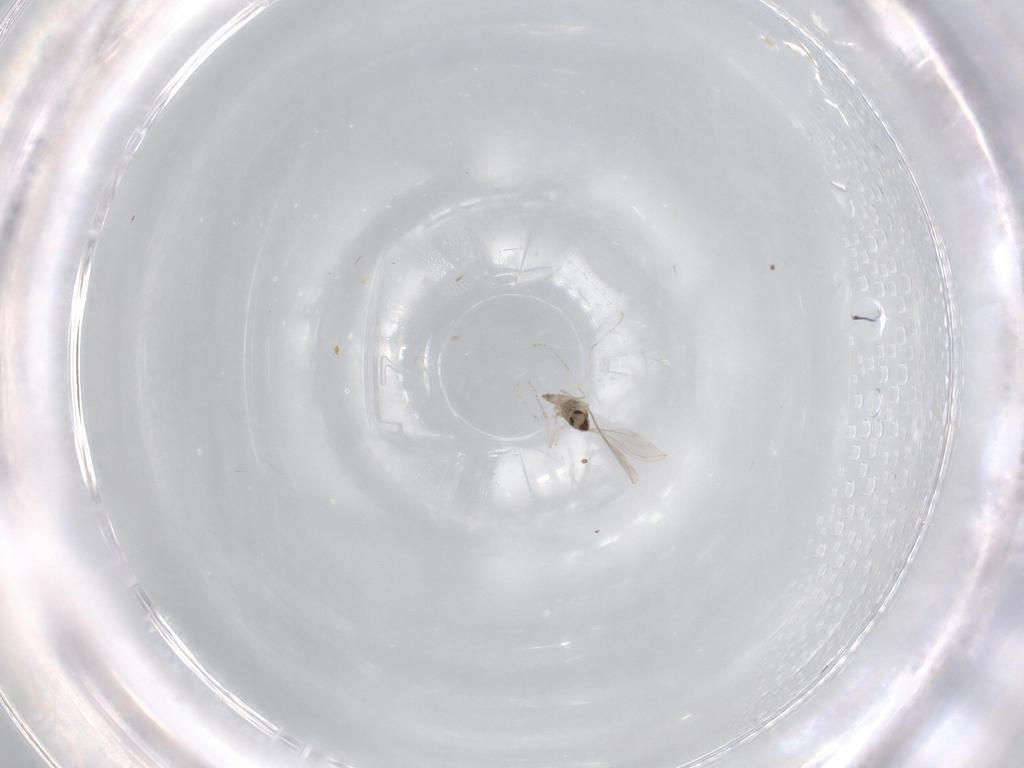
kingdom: Animalia
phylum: Arthropoda
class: Insecta
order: Diptera
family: Cecidomyiidae
